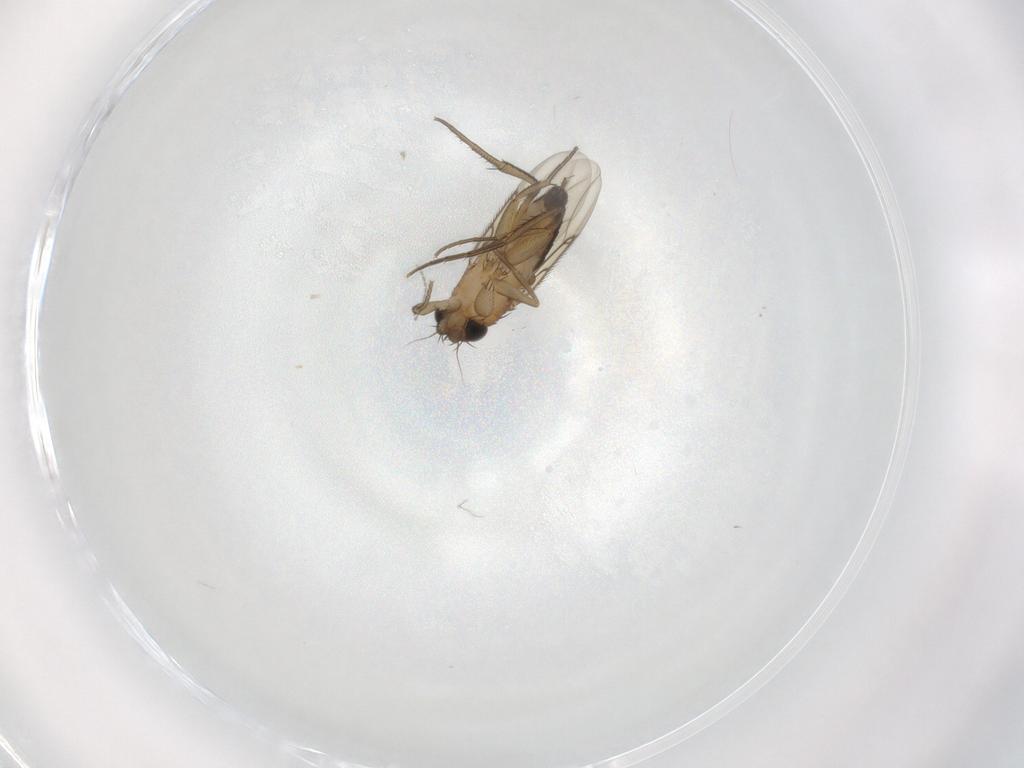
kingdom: Animalia
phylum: Arthropoda
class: Insecta
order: Diptera
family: Phoridae
